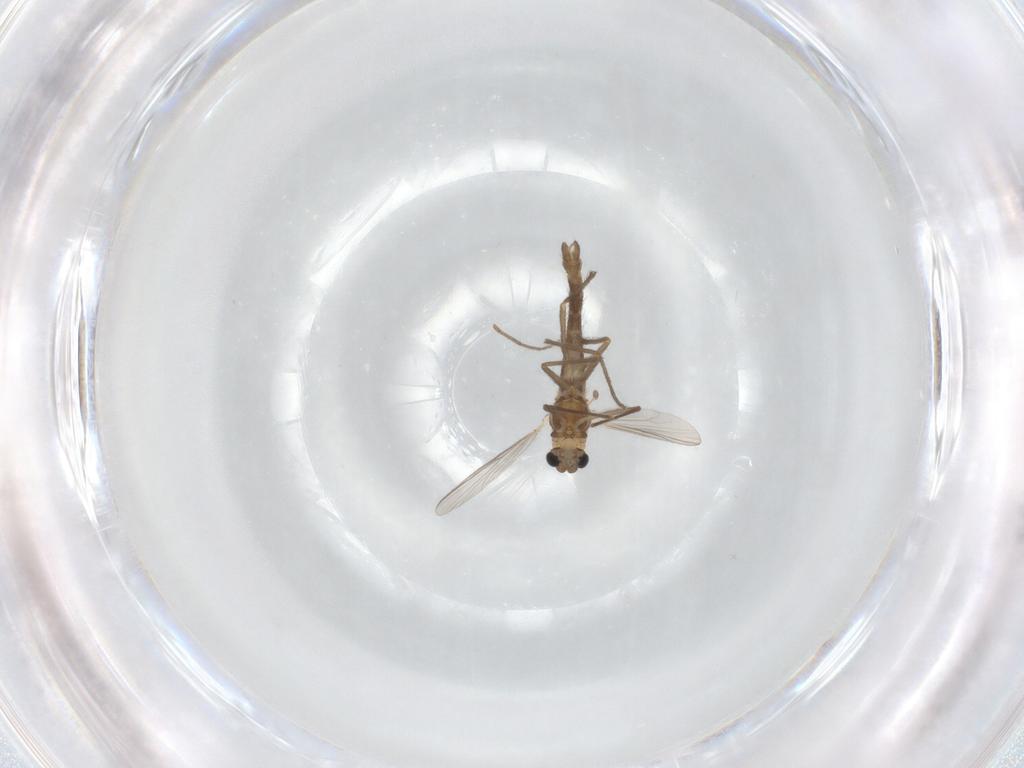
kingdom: Animalia
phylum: Arthropoda
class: Insecta
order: Diptera
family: Chironomidae
